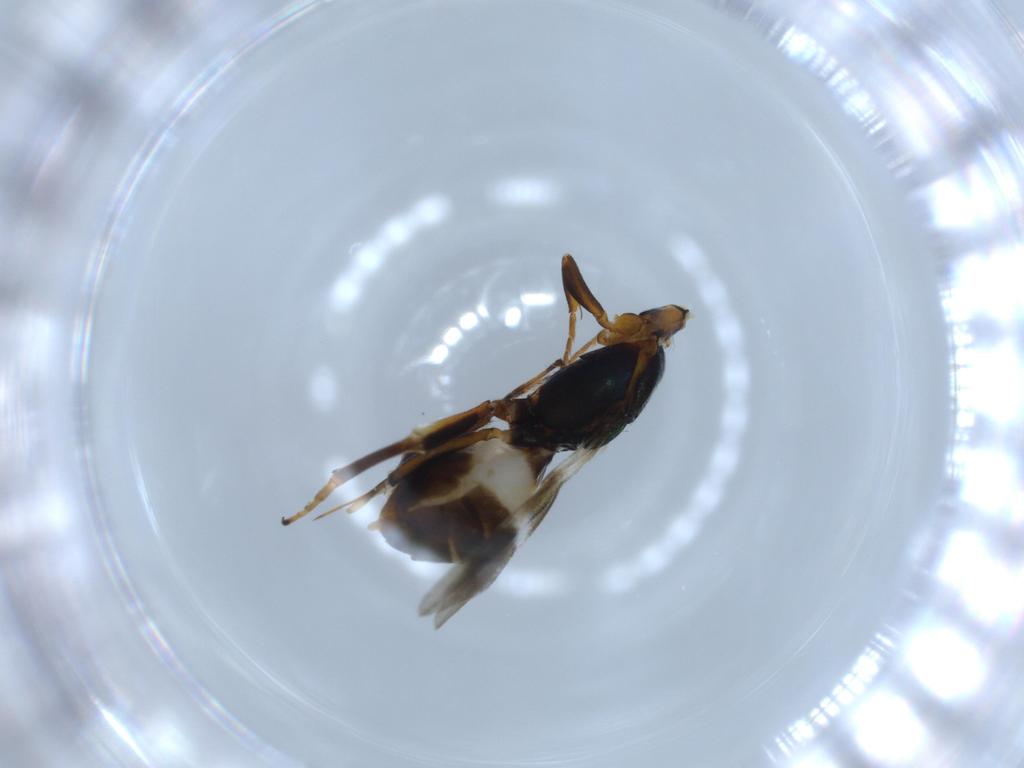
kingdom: Animalia
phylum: Arthropoda
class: Insecta
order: Hymenoptera
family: Eupelmidae
